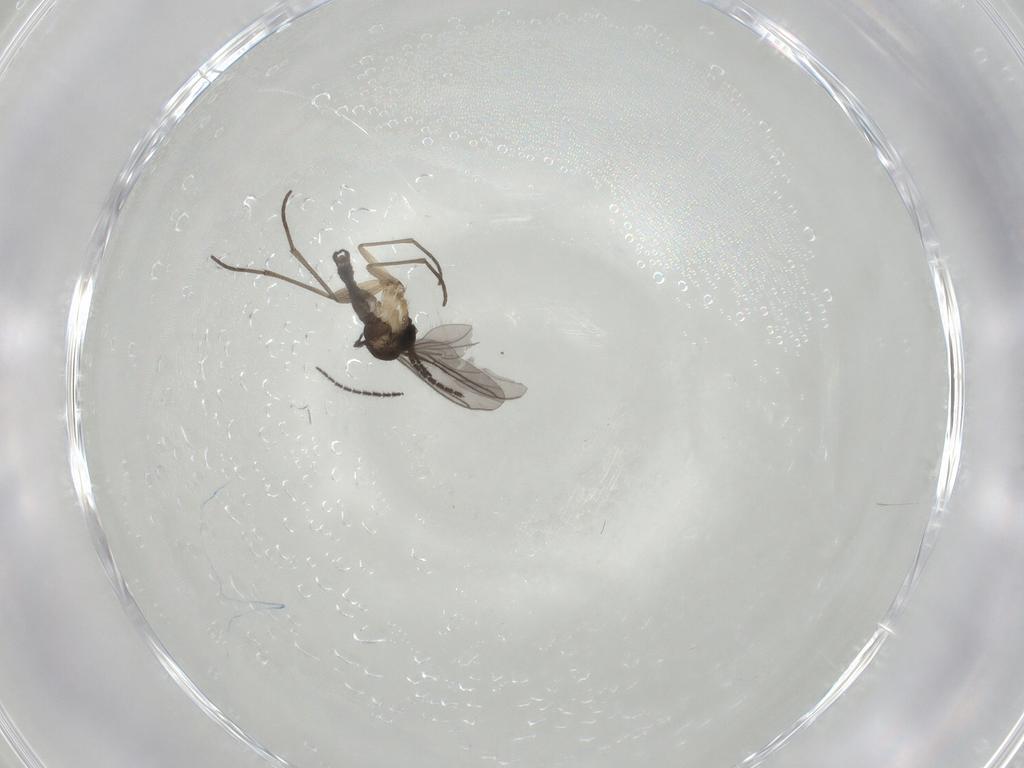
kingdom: Animalia
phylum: Arthropoda
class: Insecta
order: Diptera
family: Sciaridae
